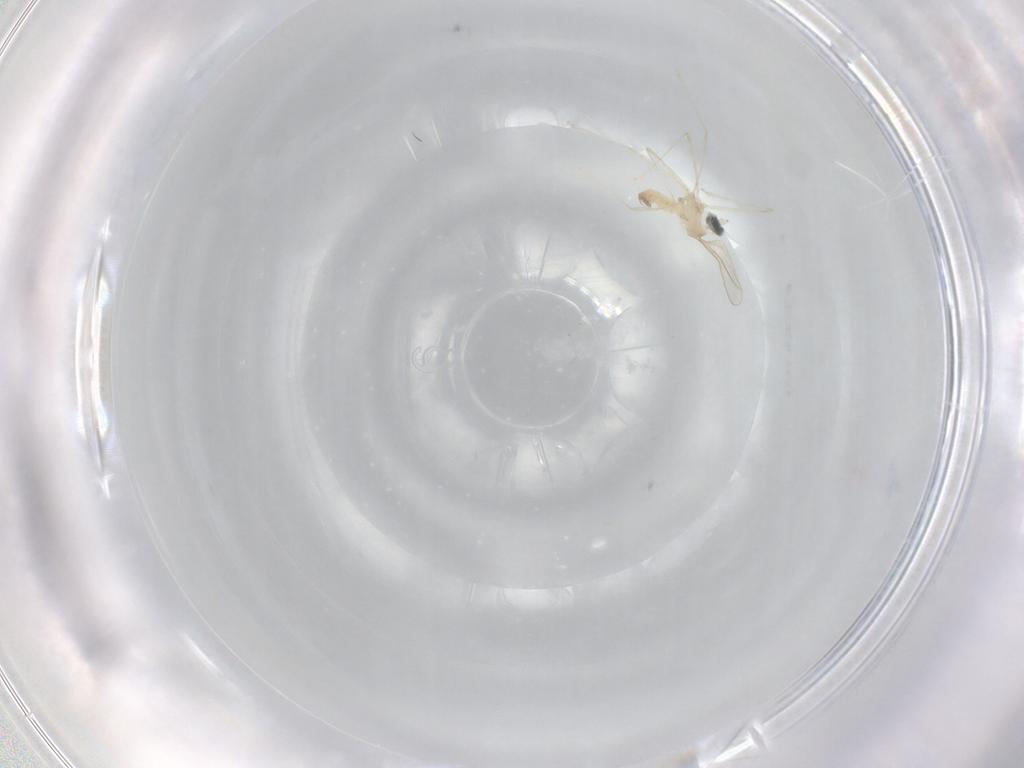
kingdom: Animalia
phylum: Arthropoda
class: Insecta
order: Diptera
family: Cecidomyiidae
